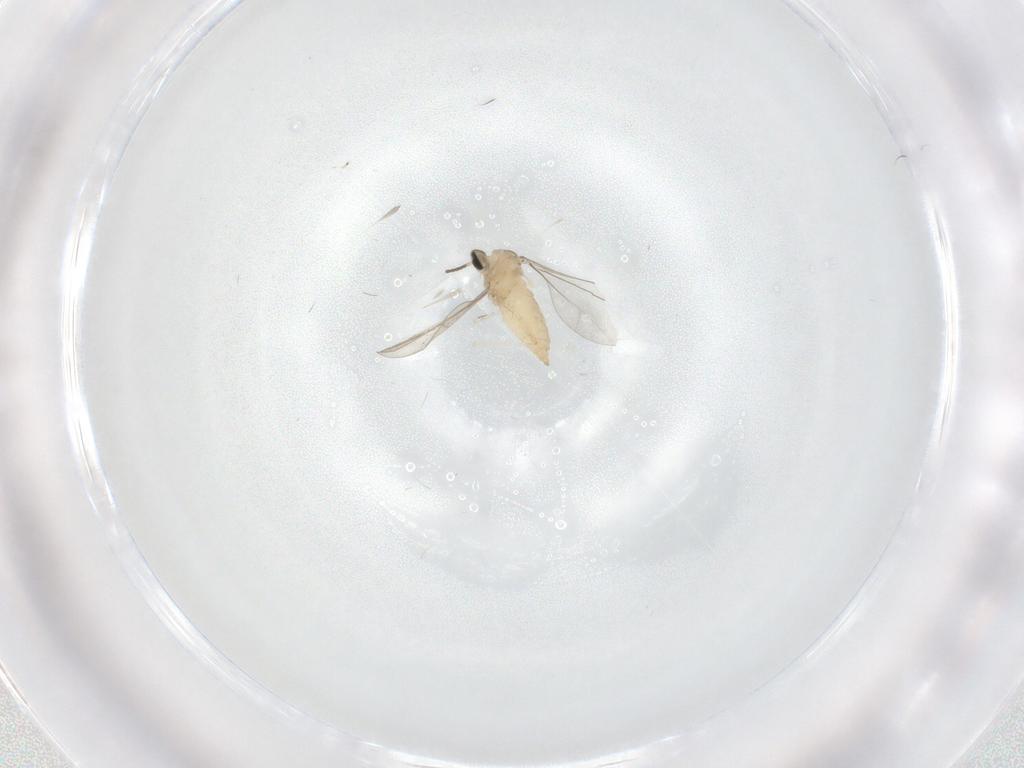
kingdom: Animalia
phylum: Arthropoda
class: Insecta
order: Diptera
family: Cecidomyiidae
